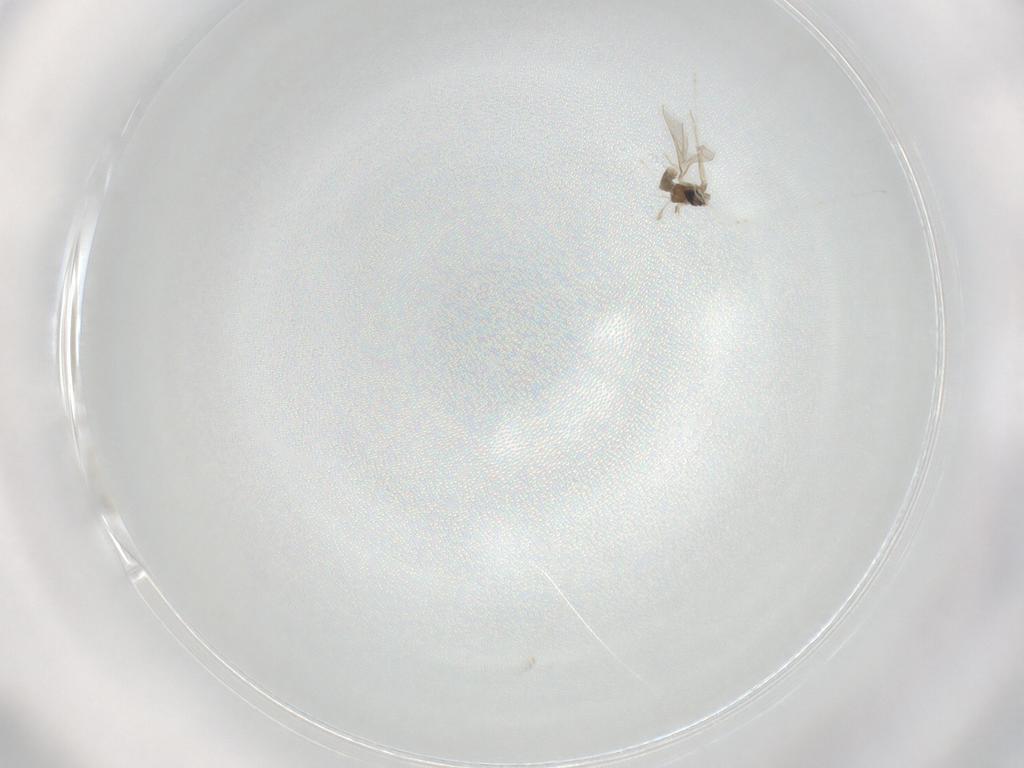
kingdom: Animalia
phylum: Arthropoda
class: Insecta
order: Diptera
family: Cecidomyiidae
